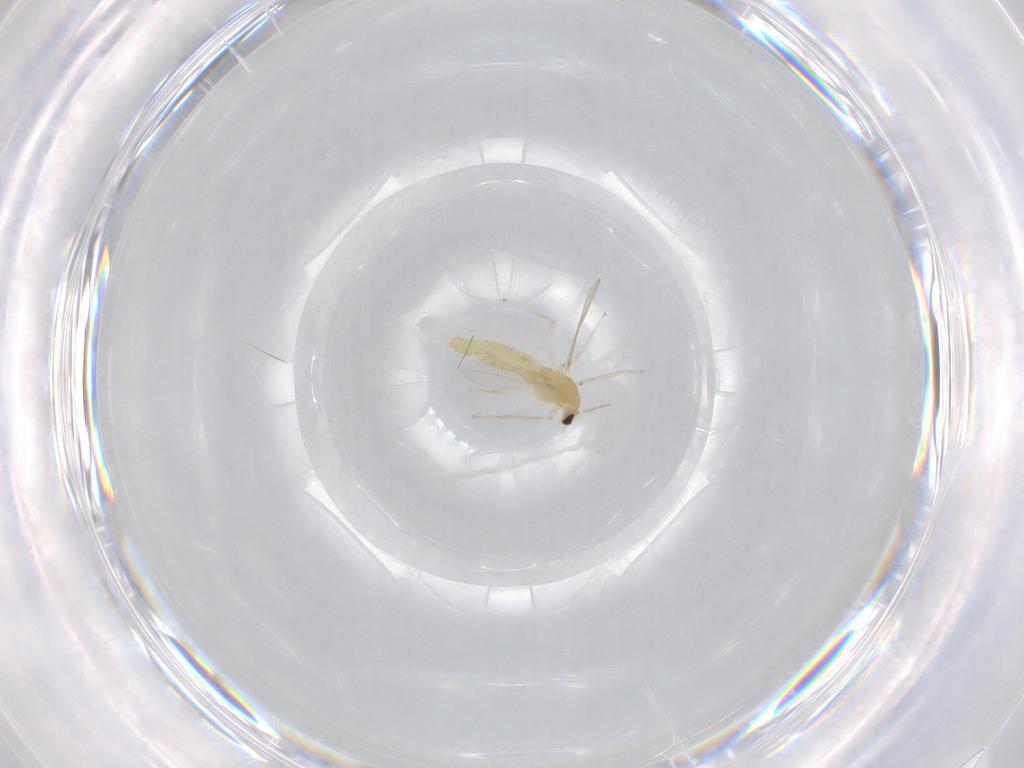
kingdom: Animalia
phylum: Arthropoda
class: Insecta
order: Diptera
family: Chironomidae
